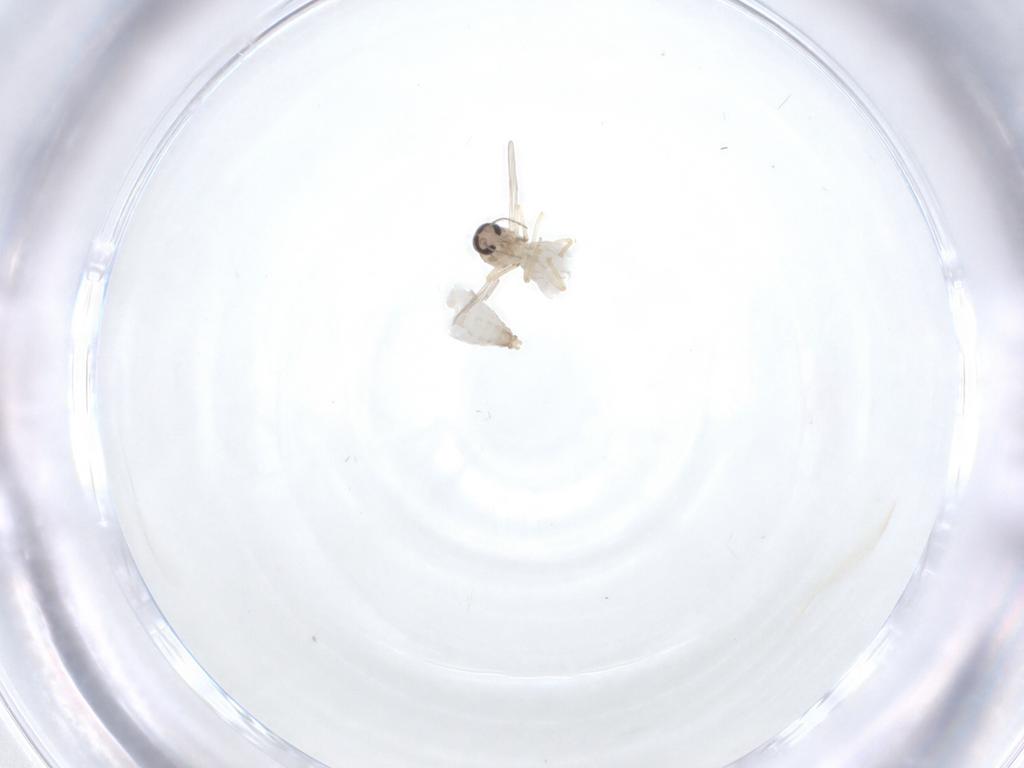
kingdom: Animalia
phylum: Arthropoda
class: Insecta
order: Diptera
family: Ceratopogonidae
